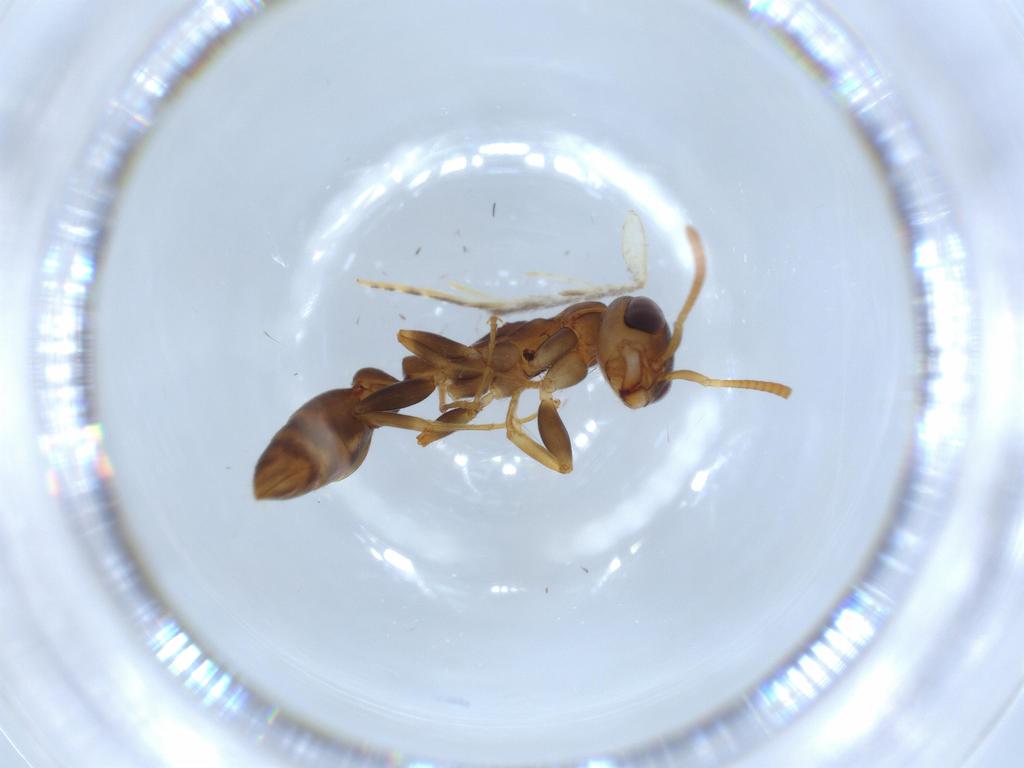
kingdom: Animalia
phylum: Arthropoda
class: Insecta
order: Hymenoptera
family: Formicidae
